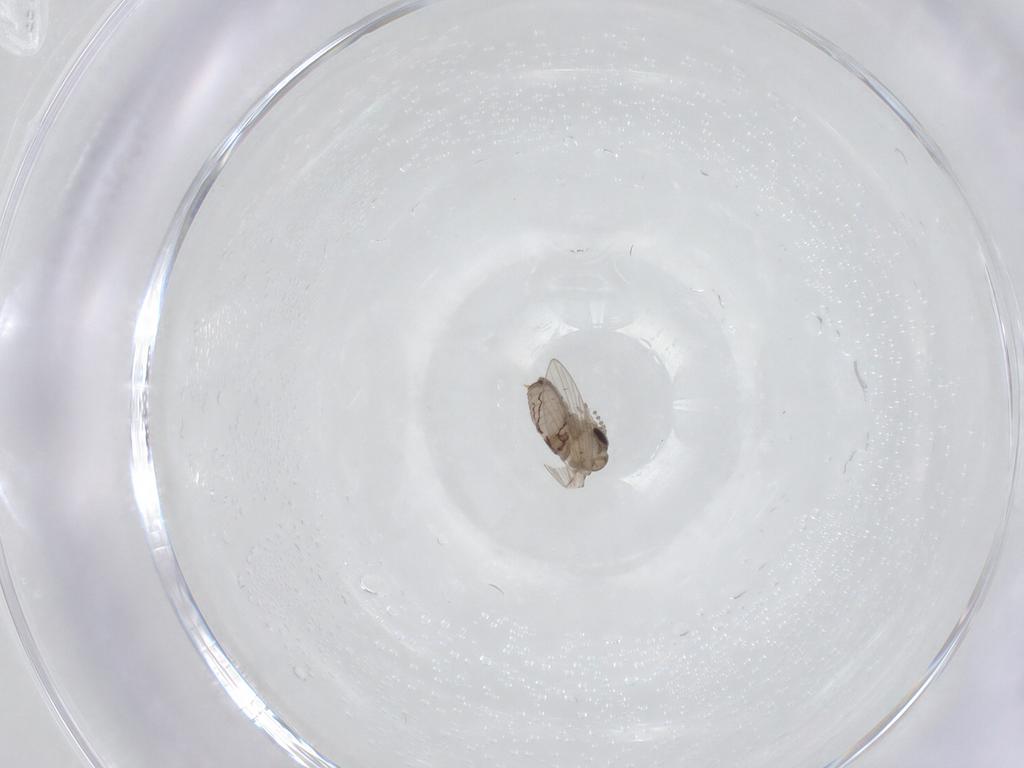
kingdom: Animalia
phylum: Arthropoda
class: Insecta
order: Diptera
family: Psychodidae
